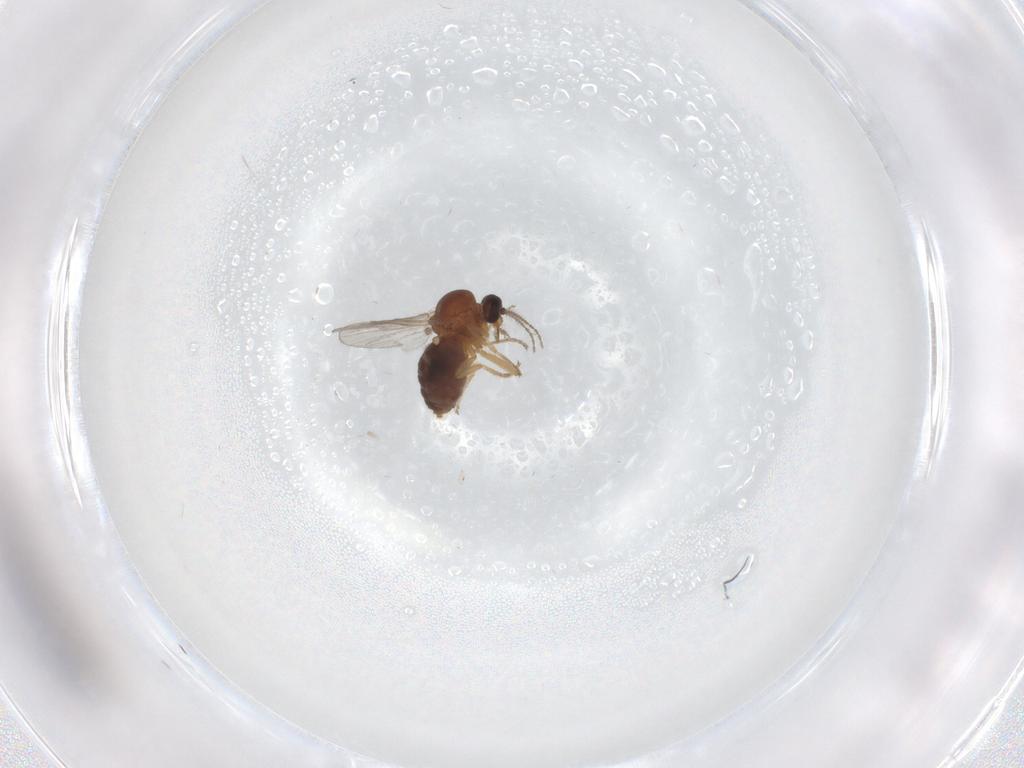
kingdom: Animalia
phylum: Arthropoda
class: Insecta
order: Diptera
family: Ceratopogonidae
